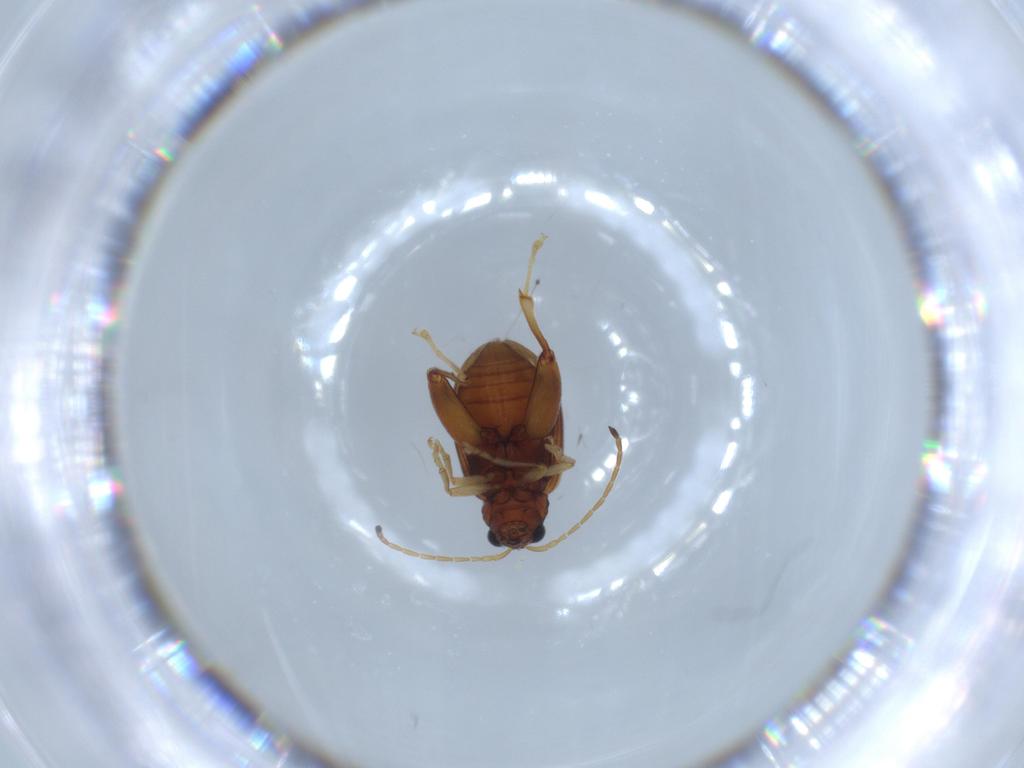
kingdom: Animalia
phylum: Arthropoda
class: Insecta
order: Coleoptera
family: Chrysomelidae
